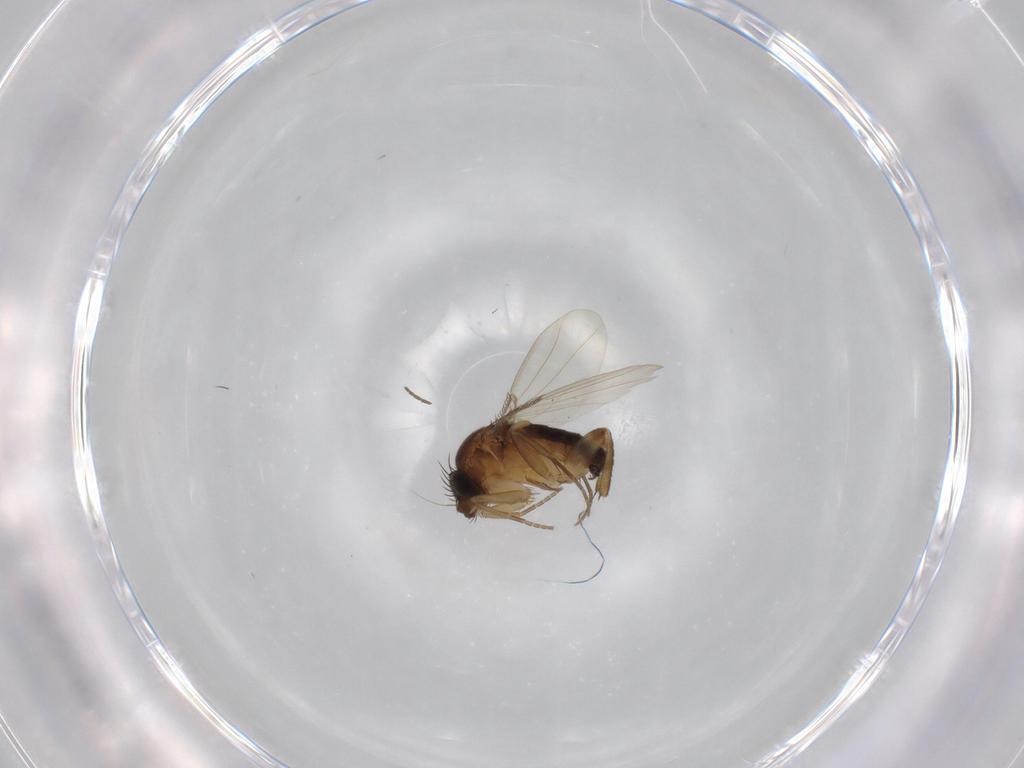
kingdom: Animalia
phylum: Arthropoda
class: Insecta
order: Diptera
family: Phoridae
